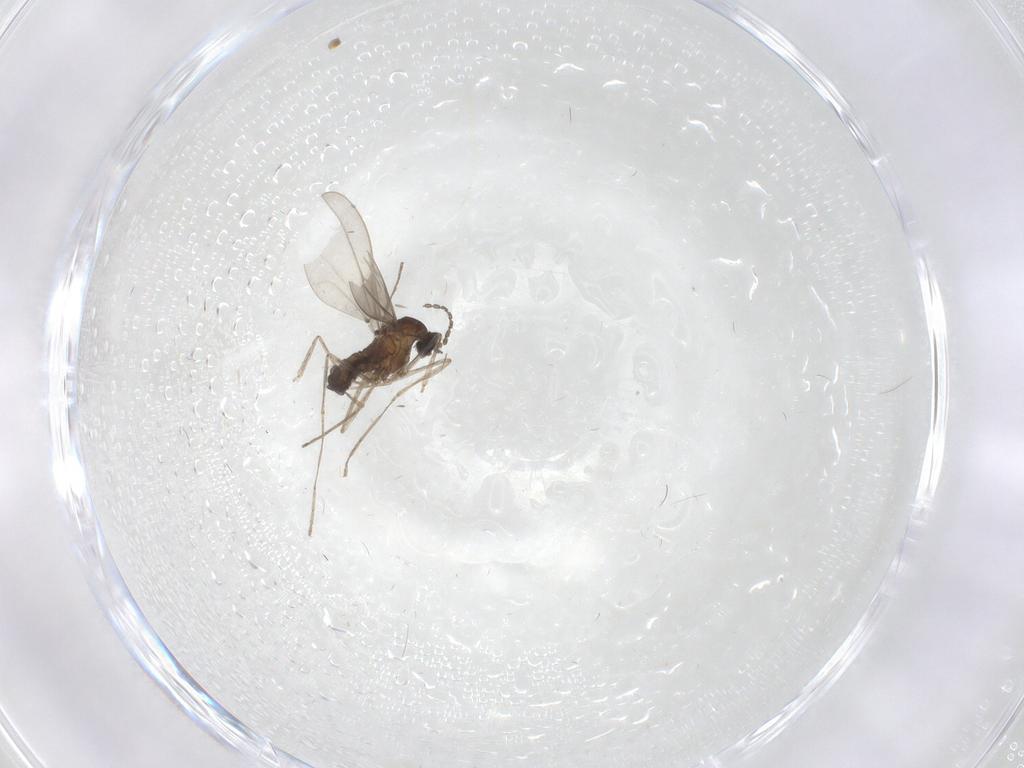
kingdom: Animalia
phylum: Arthropoda
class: Insecta
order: Diptera
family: Cecidomyiidae
